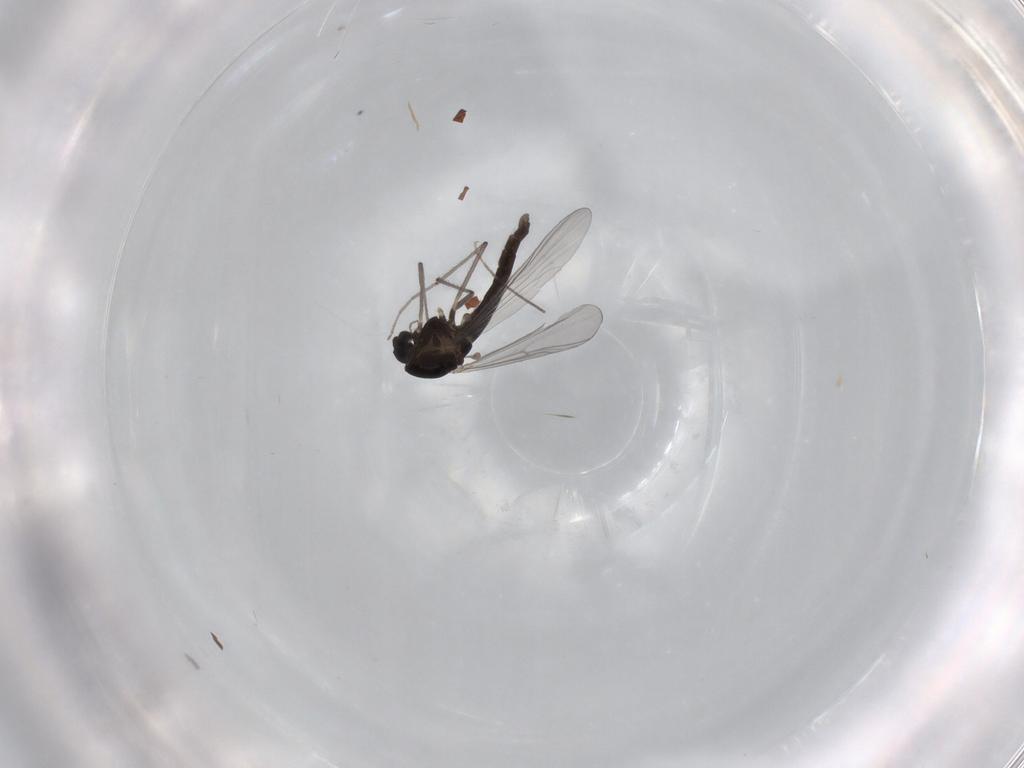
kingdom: Animalia
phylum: Arthropoda
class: Insecta
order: Diptera
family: Chironomidae
